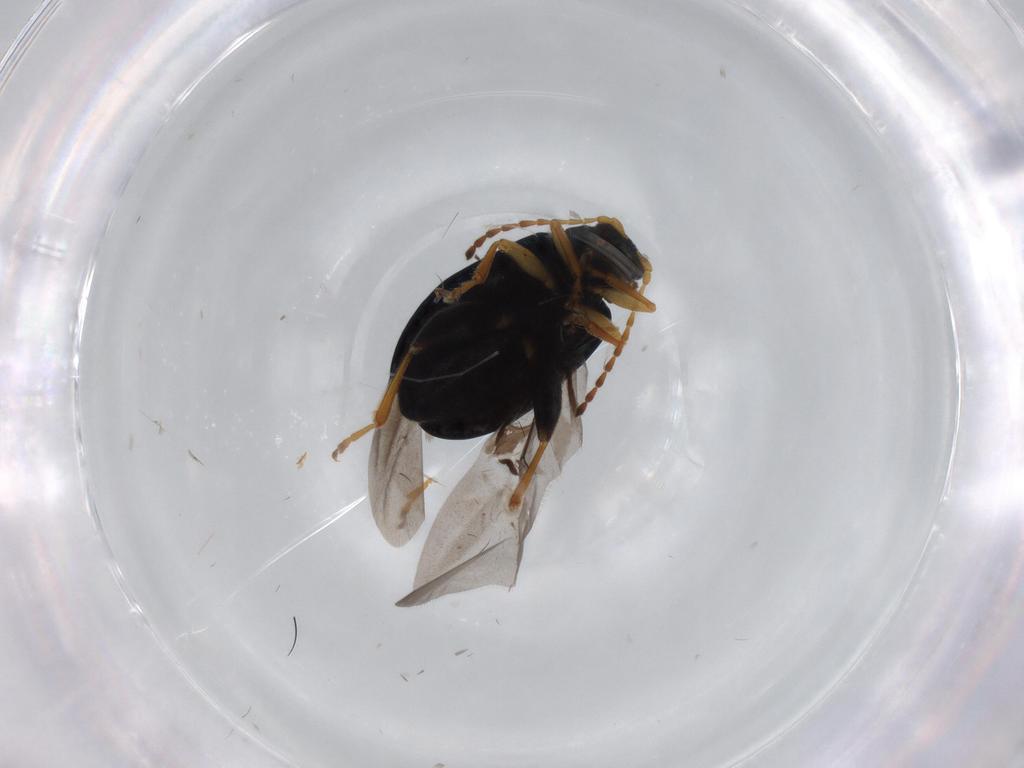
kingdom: Animalia
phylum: Arthropoda
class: Insecta
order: Coleoptera
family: Chrysomelidae
